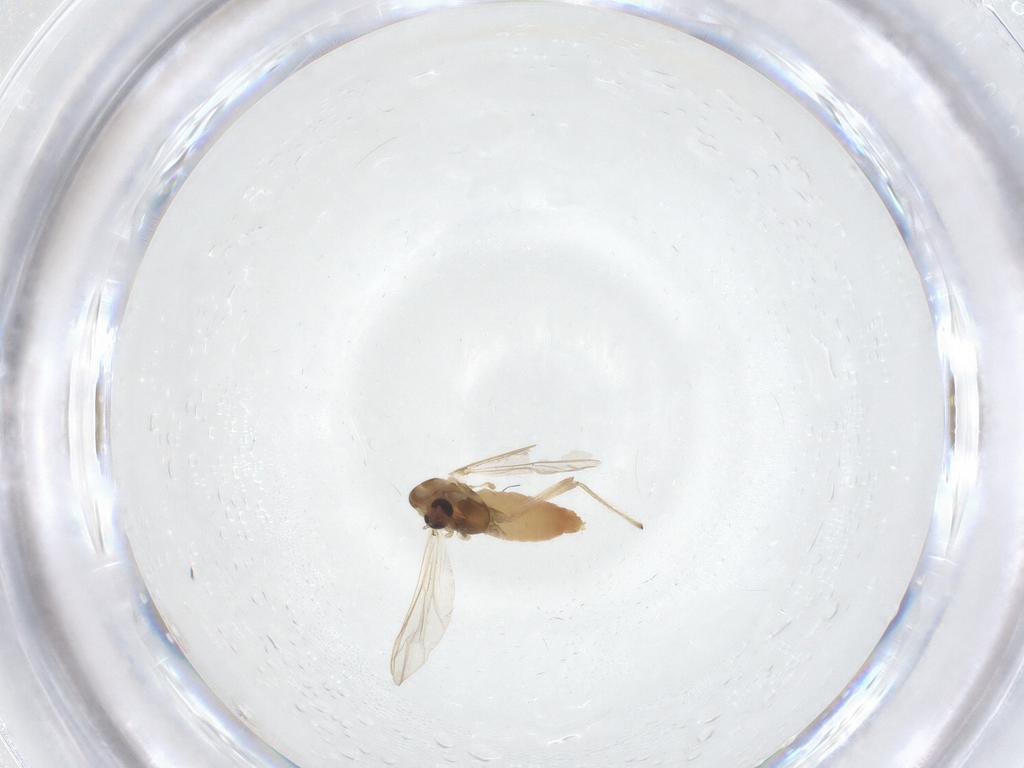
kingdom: Animalia
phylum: Arthropoda
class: Insecta
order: Diptera
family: Chironomidae
